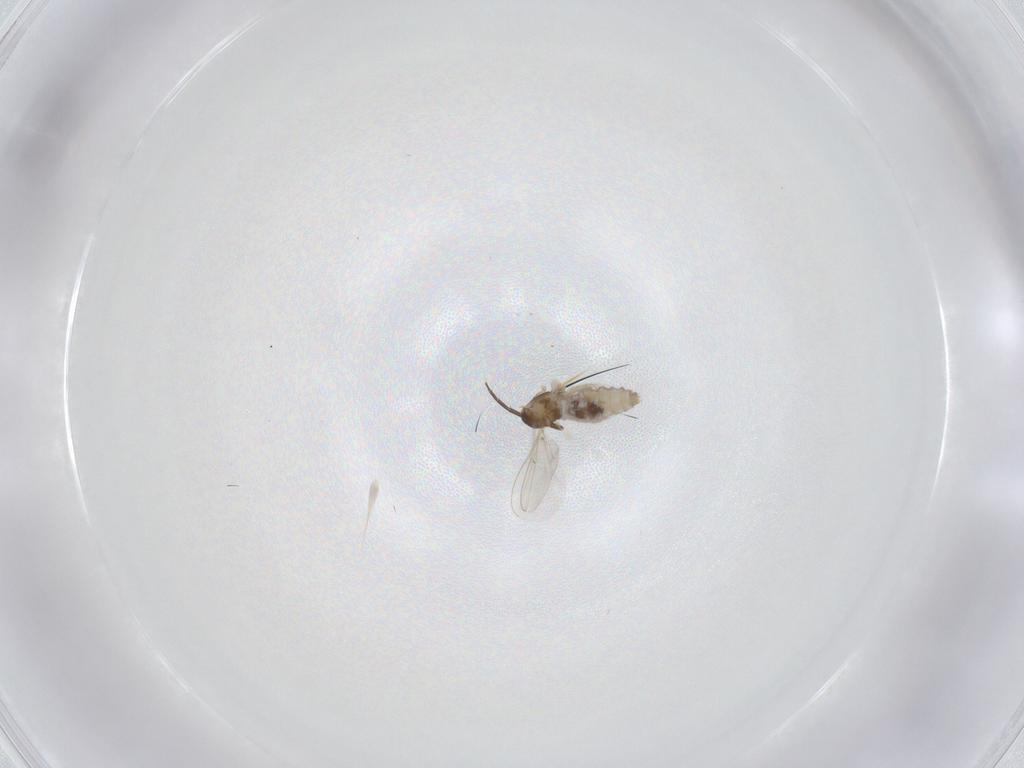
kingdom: Animalia
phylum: Arthropoda
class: Insecta
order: Diptera
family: Cecidomyiidae
